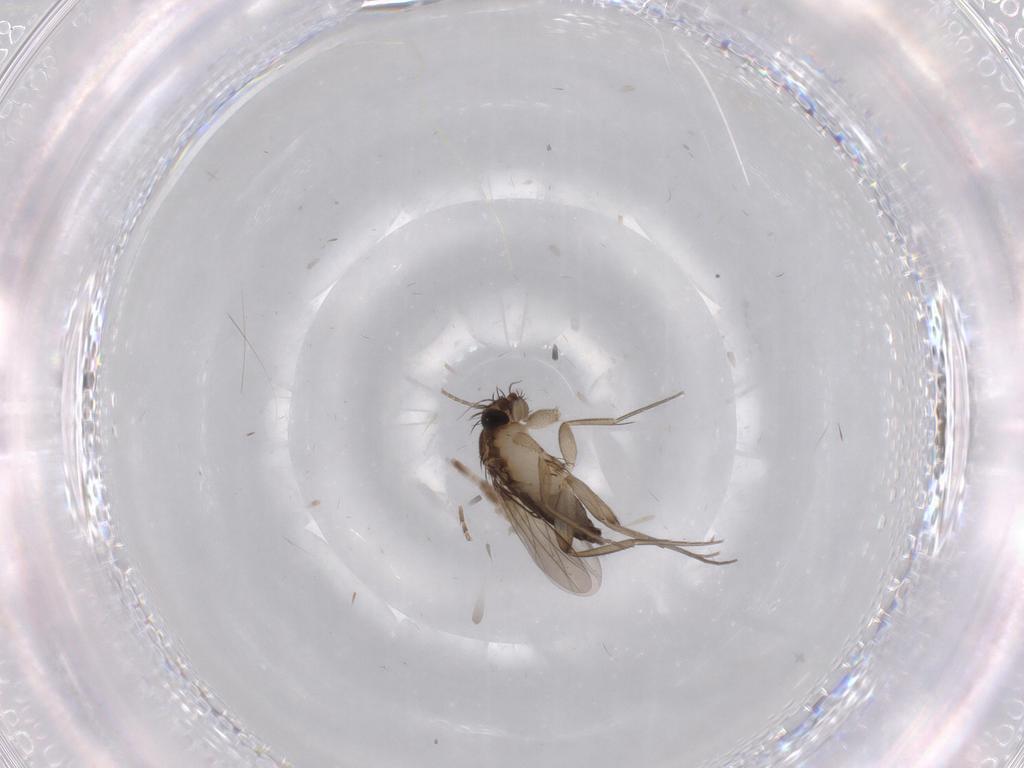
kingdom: Animalia
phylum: Arthropoda
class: Insecta
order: Diptera
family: Phoridae
